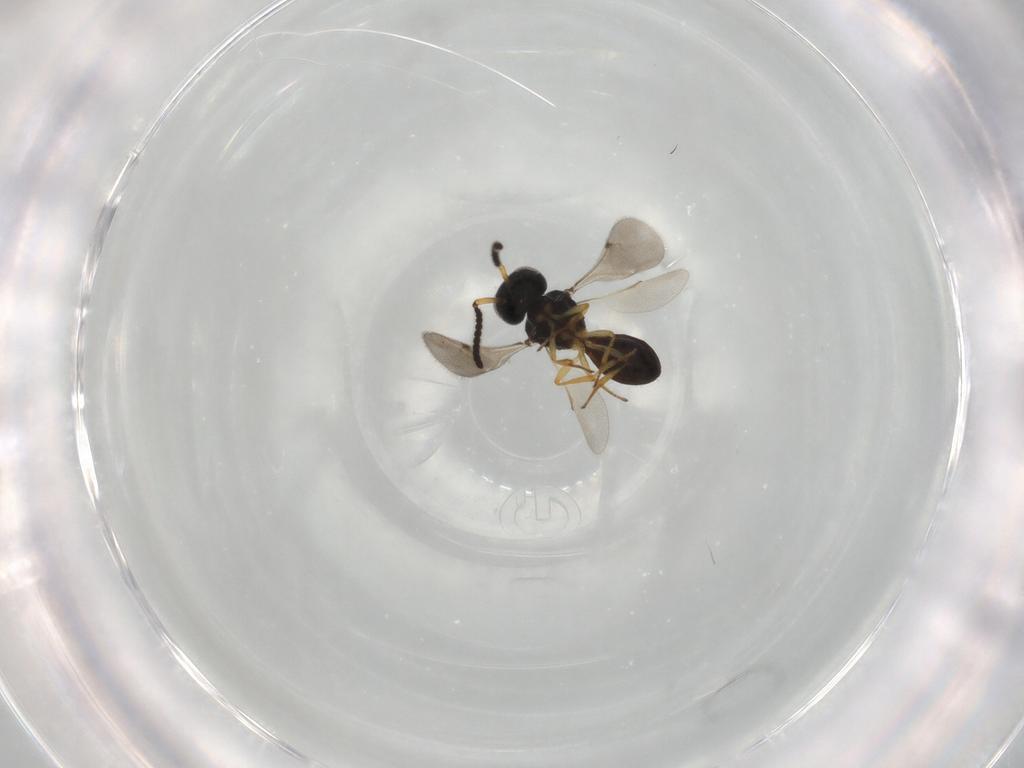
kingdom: Animalia
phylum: Arthropoda
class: Insecta
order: Hymenoptera
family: Scelionidae
